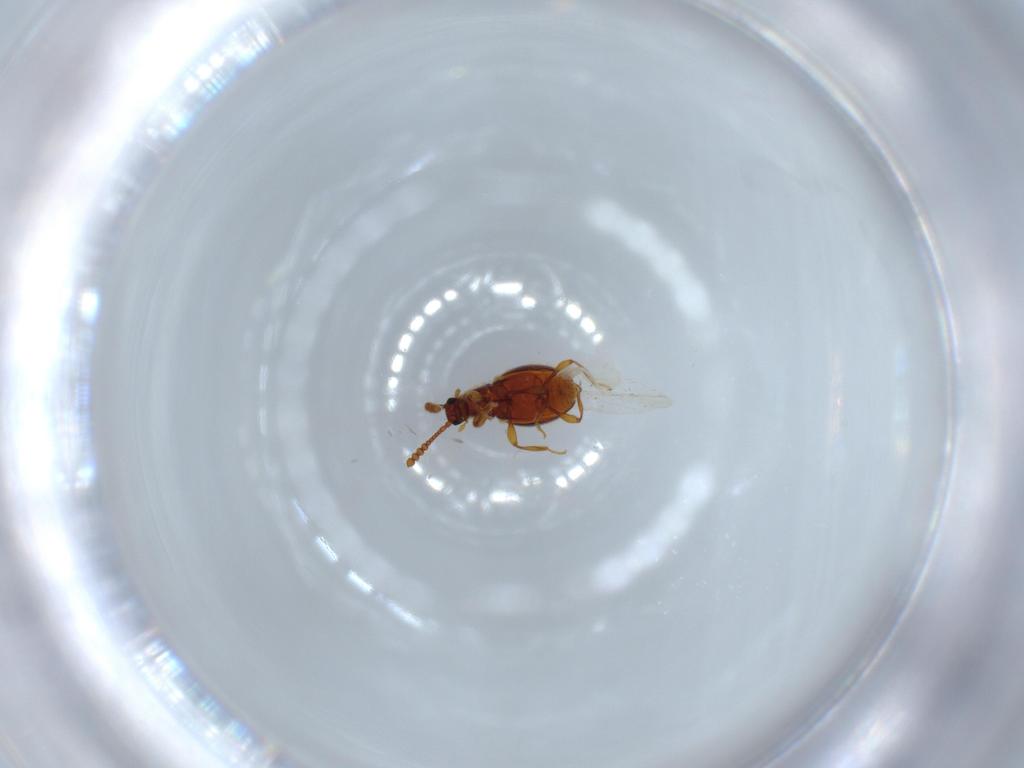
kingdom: Animalia
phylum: Arthropoda
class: Insecta
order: Coleoptera
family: Staphylinidae
